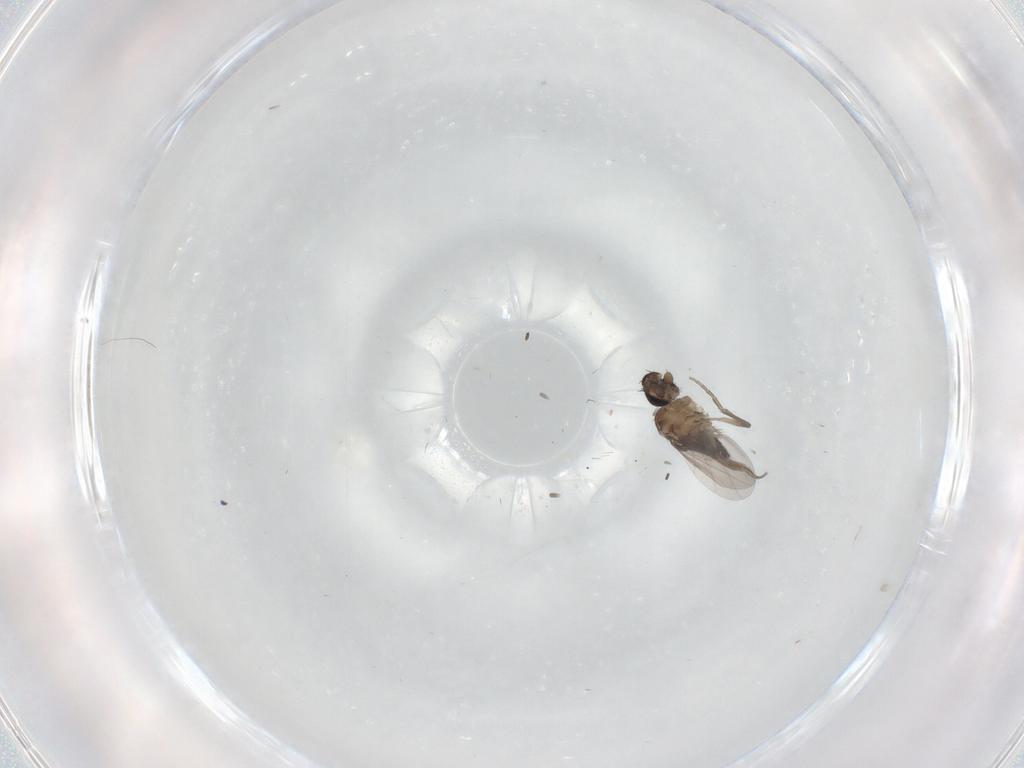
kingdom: Animalia
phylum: Arthropoda
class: Insecta
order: Diptera
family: Phoridae
